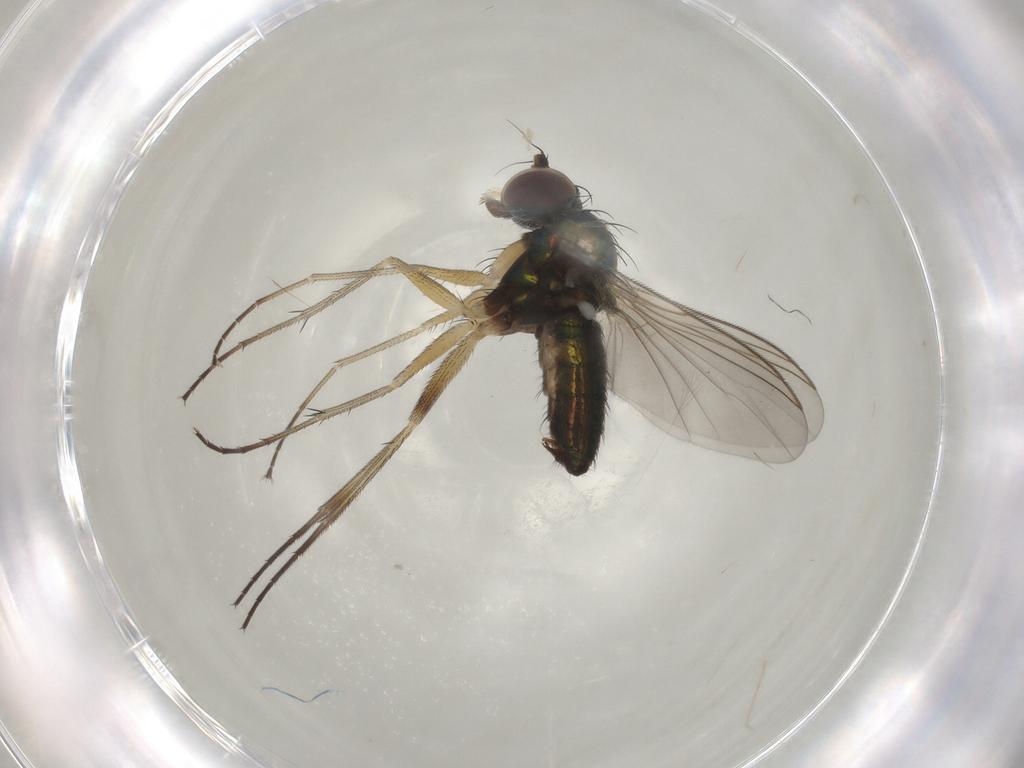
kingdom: Animalia
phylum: Arthropoda
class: Insecta
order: Diptera
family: Dolichopodidae
